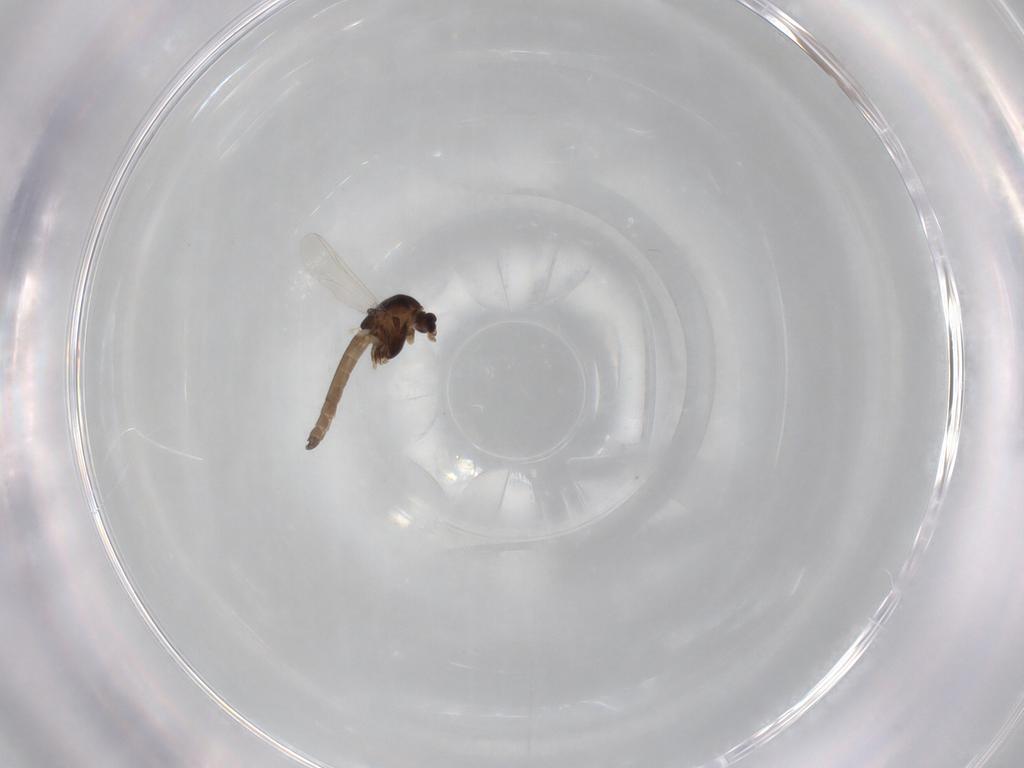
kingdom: Animalia
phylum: Arthropoda
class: Insecta
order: Diptera
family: Chironomidae
